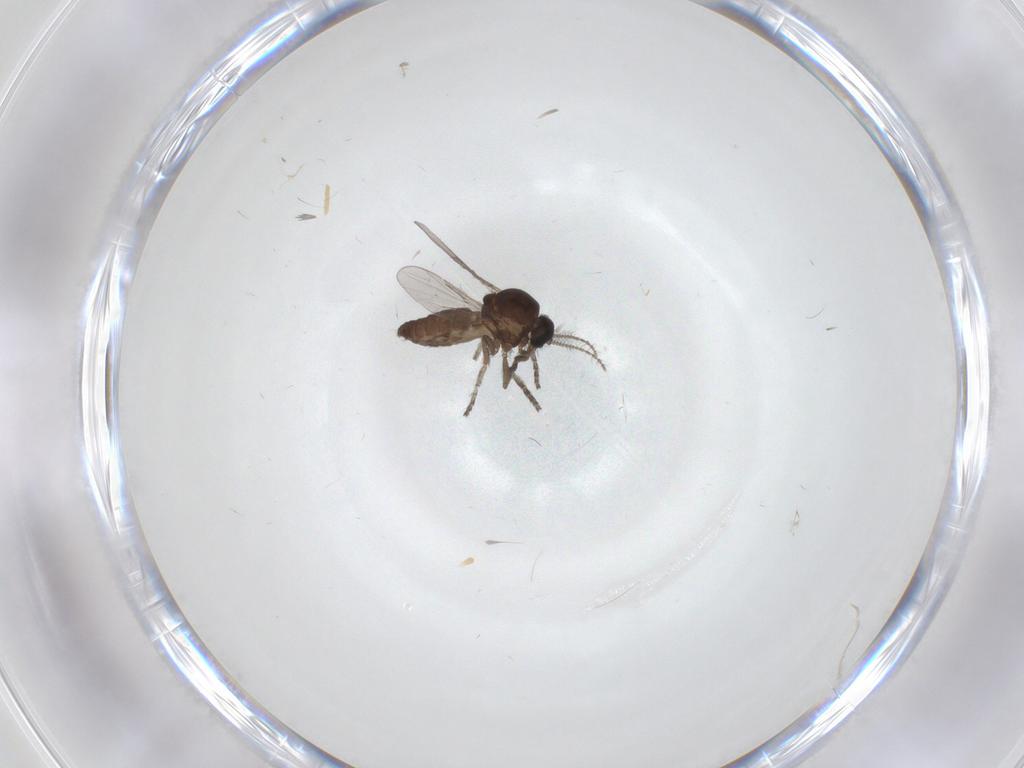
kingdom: Animalia
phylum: Arthropoda
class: Insecta
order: Diptera
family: Ceratopogonidae
